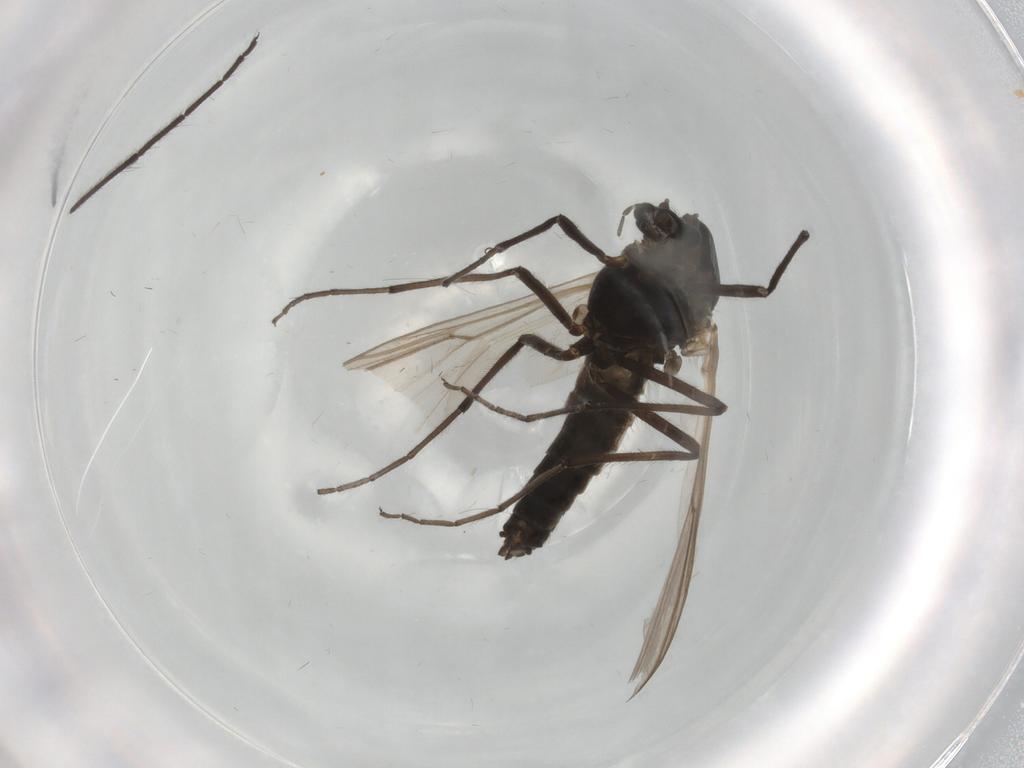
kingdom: Animalia
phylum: Arthropoda
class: Insecta
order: Diptera
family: Chironomidae
